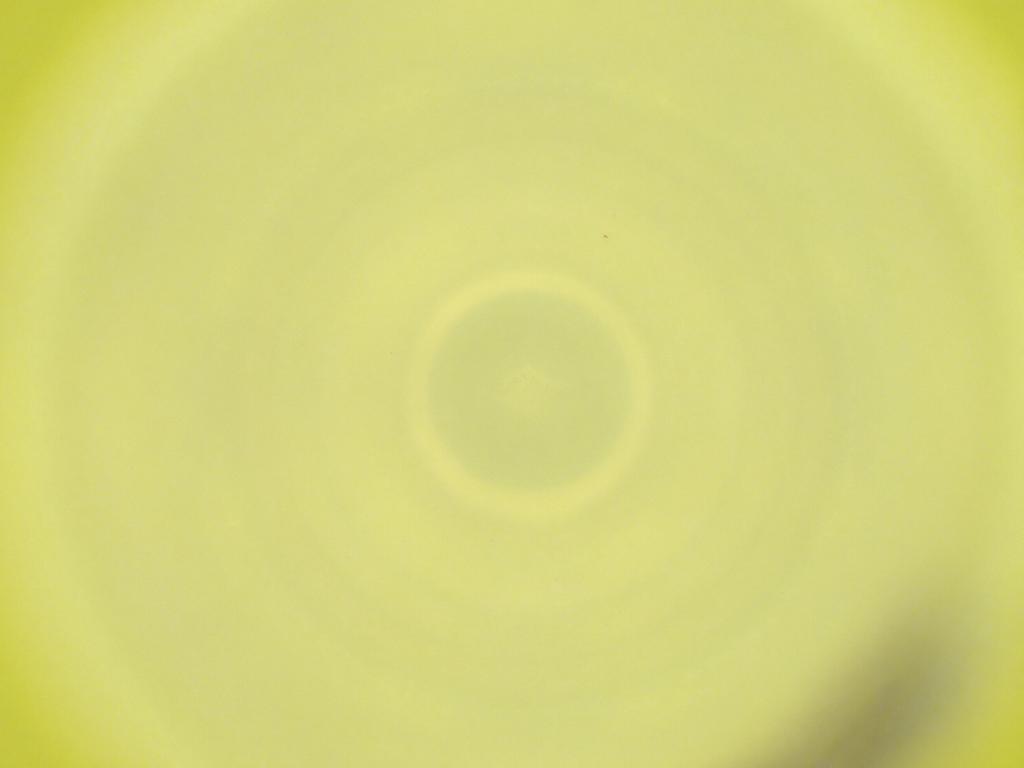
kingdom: Animalia
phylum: Arthropoda
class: Insecta
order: Diptera
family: Cecidomyiidae
